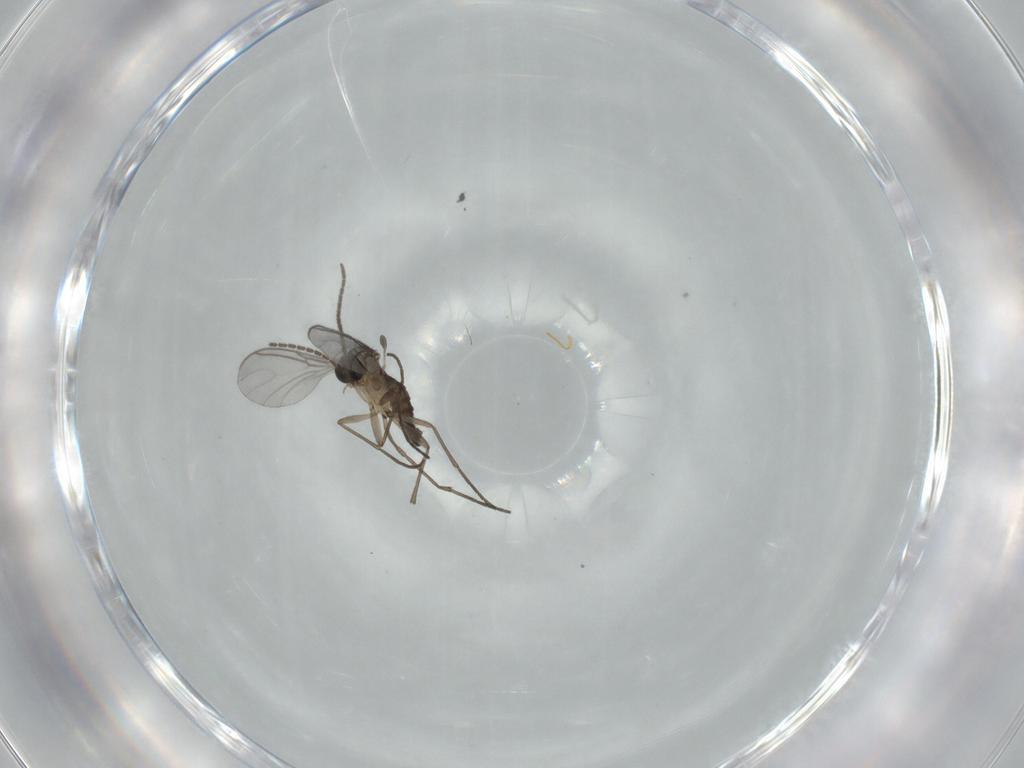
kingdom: Animalia
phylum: Arthropoda
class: Insecta
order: Diptera
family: Sciaridae
